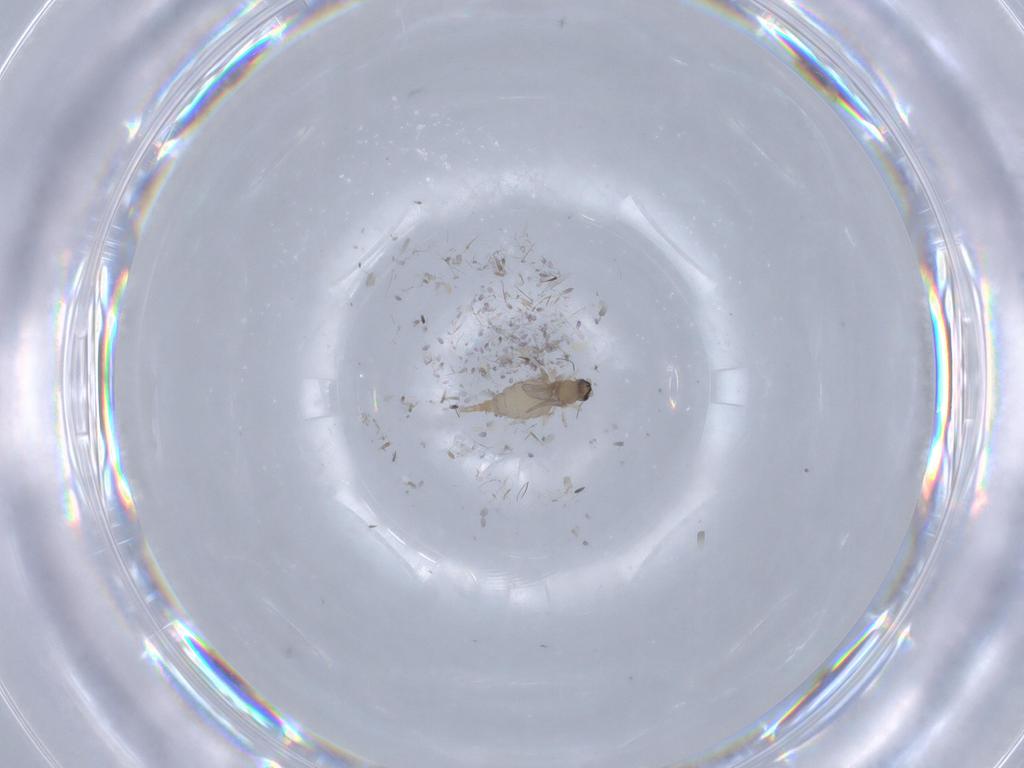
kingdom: Animalia
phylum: Arthropoda
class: Insecta
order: Diptera
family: Cecidomyiidae
